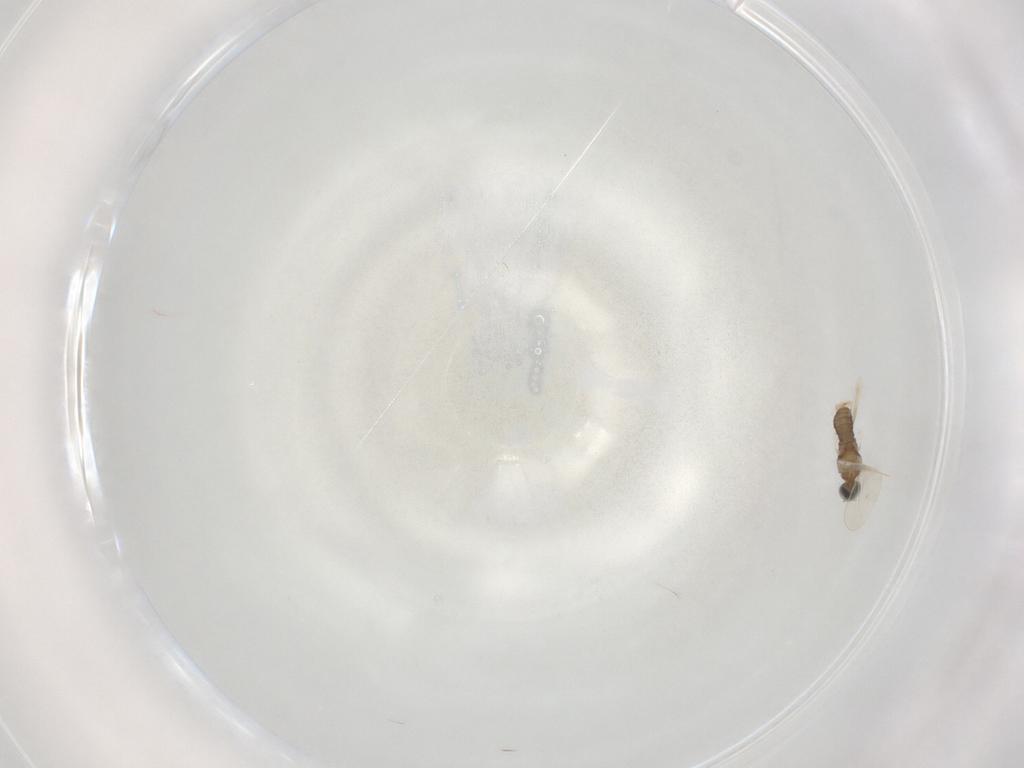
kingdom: Animalia
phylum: Arthropoda
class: Insecta
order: Diptera
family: Cecidomyiidae
